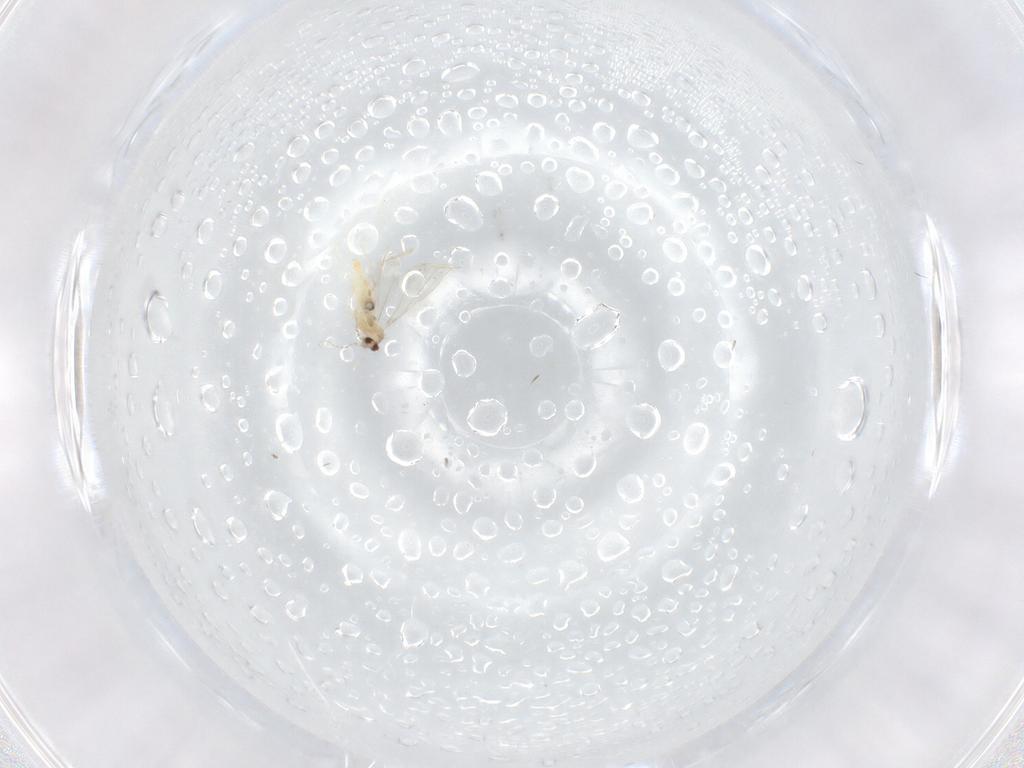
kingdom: Animalia
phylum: Arthropoda
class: Insecta
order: Diptera
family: Cecidomyiidae
